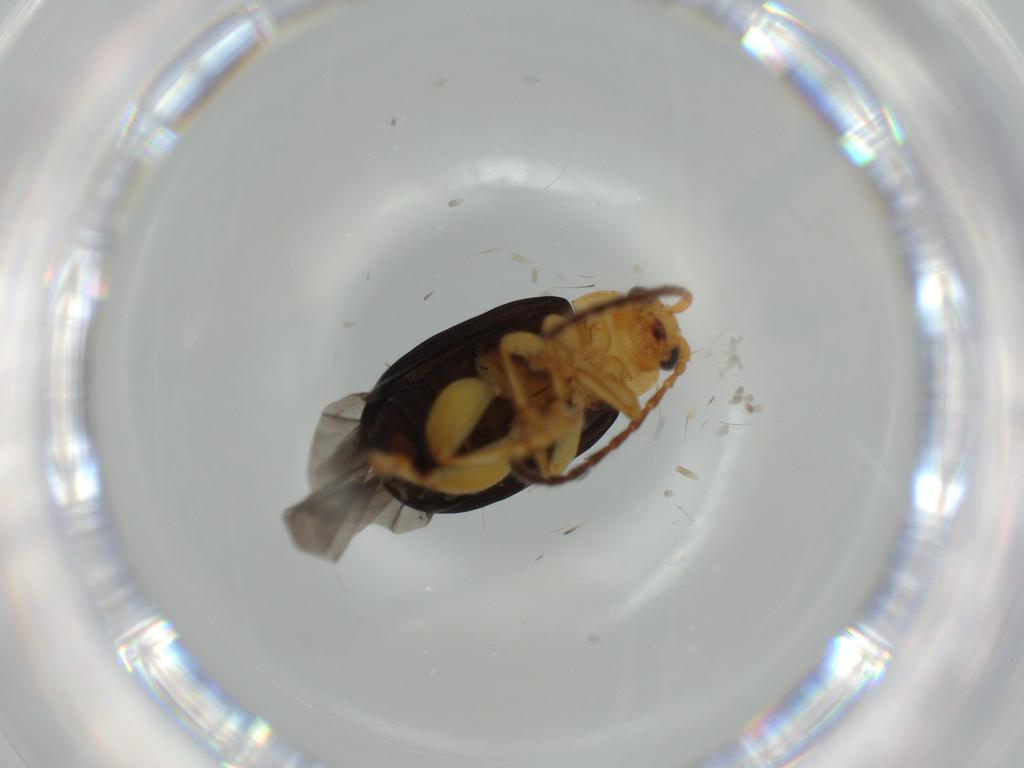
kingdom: Animalia
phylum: Arthropoda
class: Insecta
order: Coleoptera
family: Chrysomelidae
